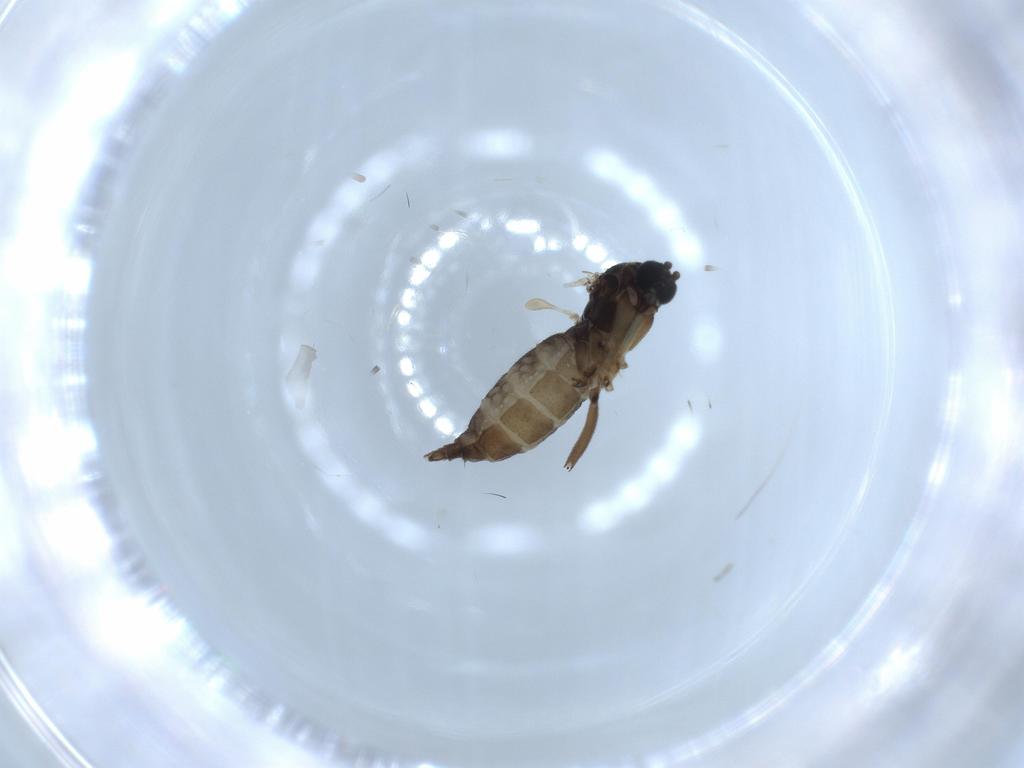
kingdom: Animalia
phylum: Arthropoda
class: Insecta
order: Diptera
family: Sciaridae
